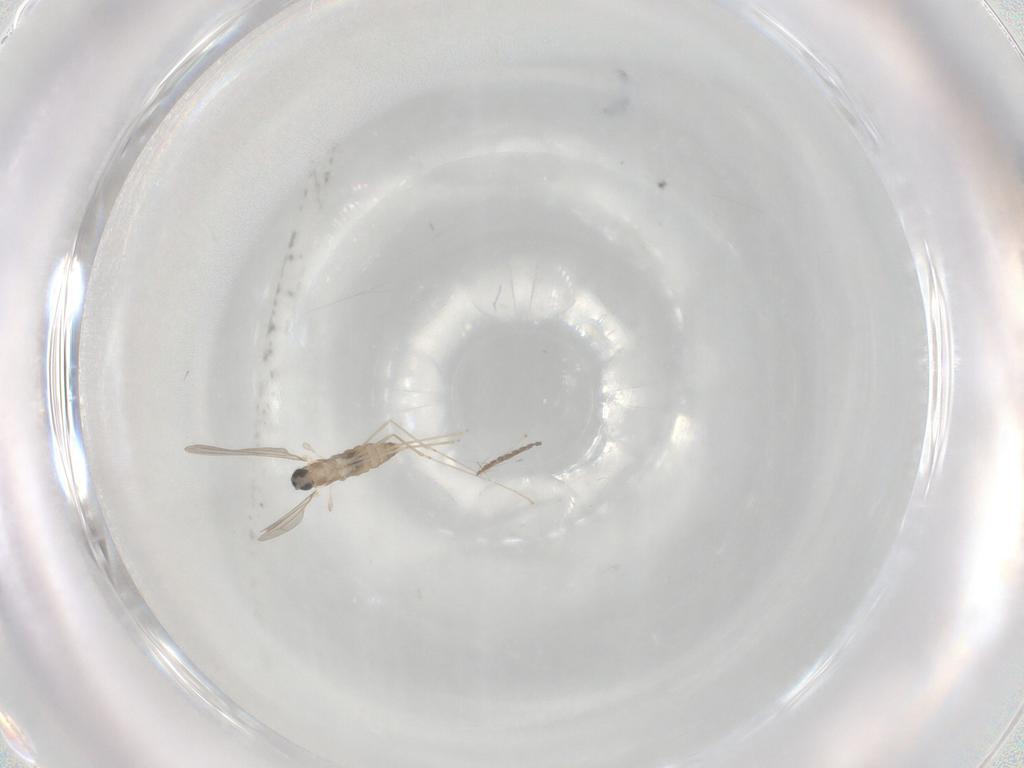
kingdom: Animalia
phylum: Arthropoda
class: Insecta
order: Diptera
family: Cecidomyiidae
